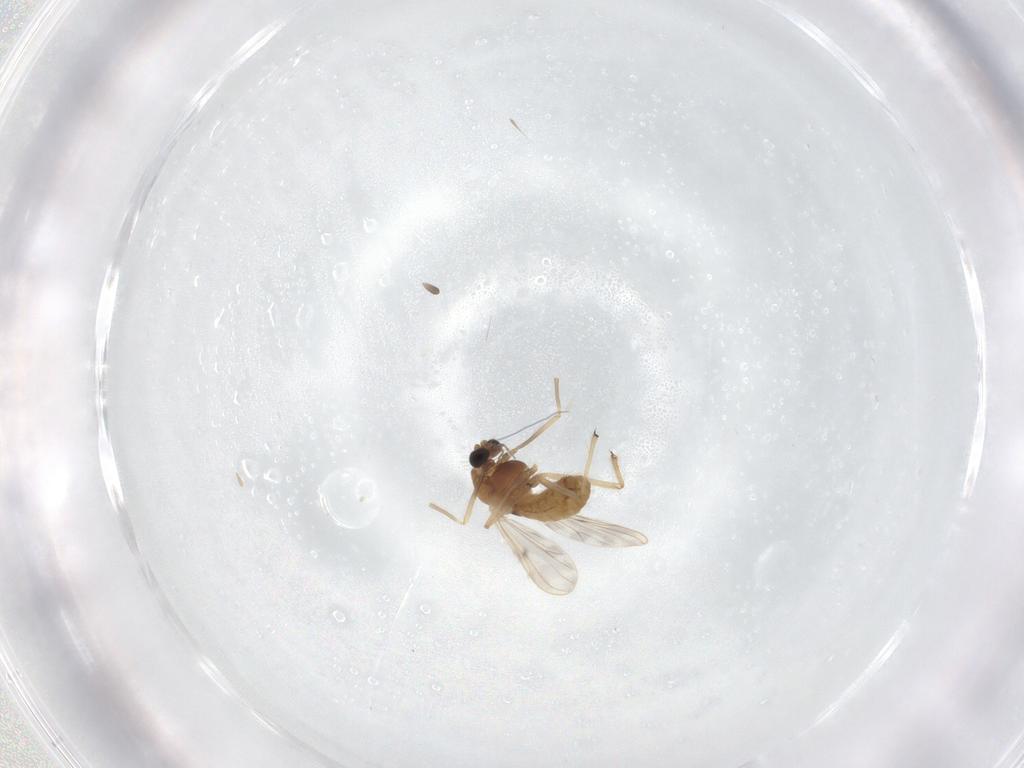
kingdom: Animalia
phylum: Arthropoda
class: Insecta
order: Diptera
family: Chironomidae
